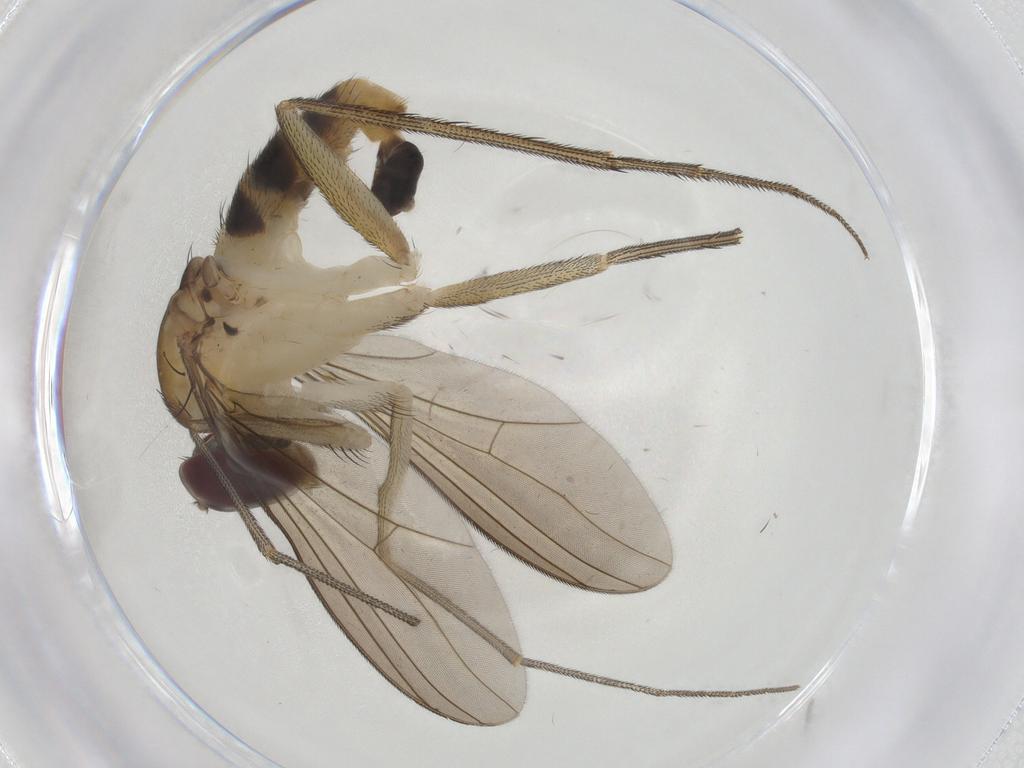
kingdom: Animalia
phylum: Arthropoda
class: Insecta
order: Diptera
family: Dolichopodidae
